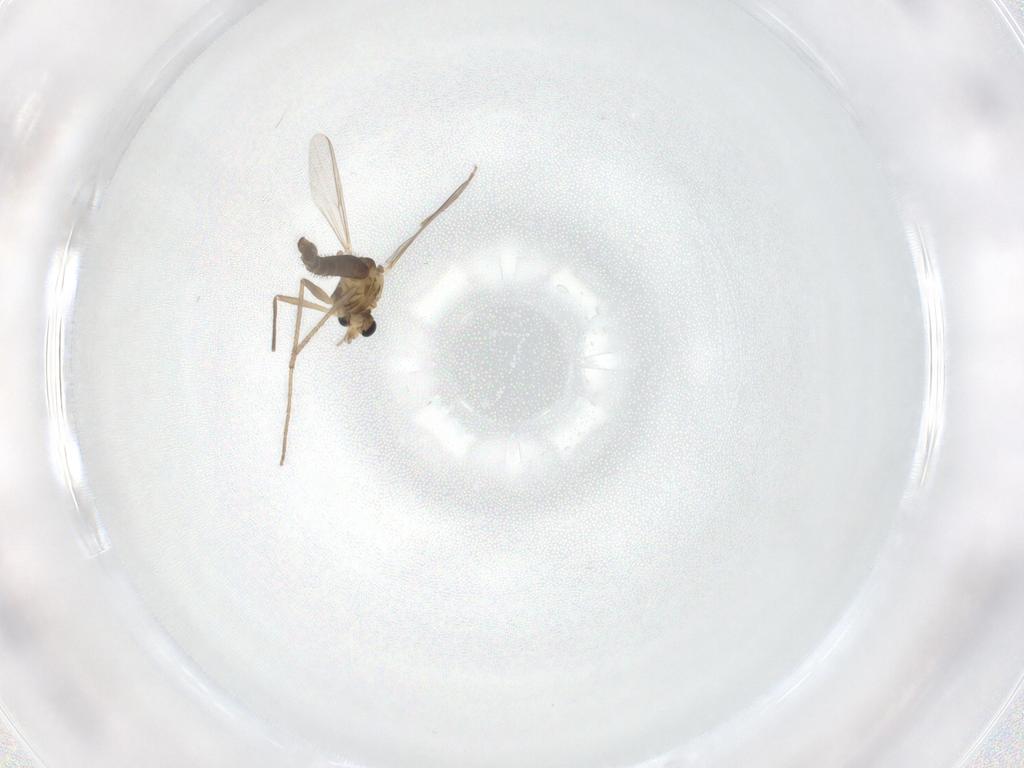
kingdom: Animalia
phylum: Arthropoda
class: Insecta
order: Diptera
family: Chironomidae
